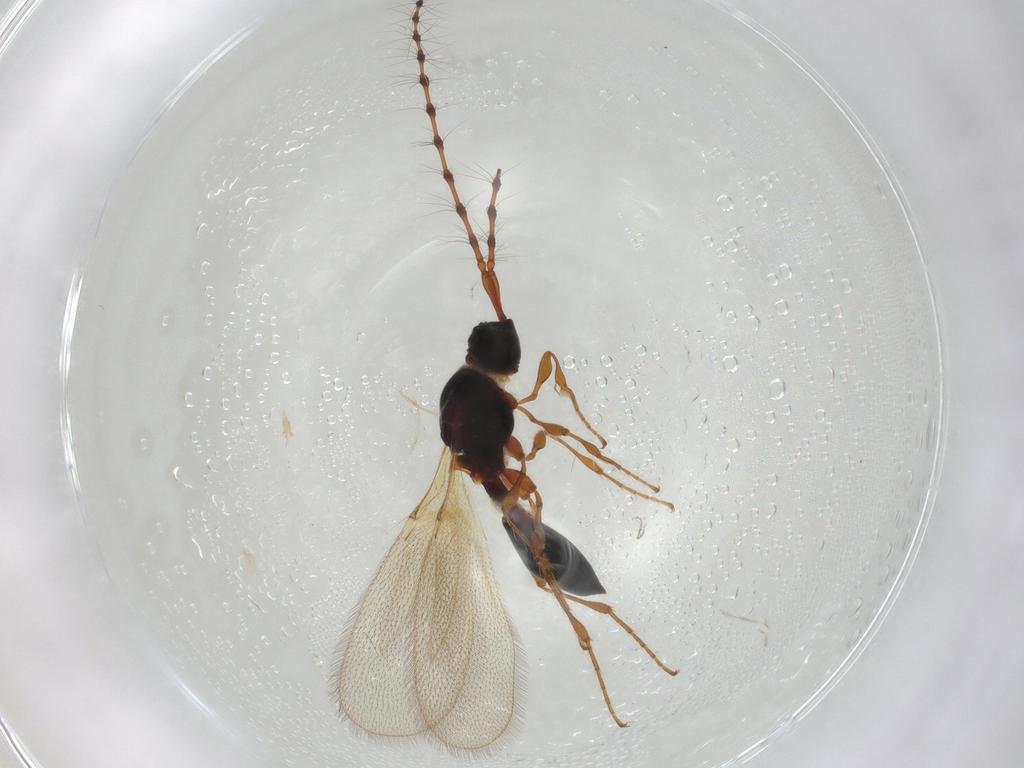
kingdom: Animalia
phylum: Arthropoda
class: Insecta
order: Hymenoptera
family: Diapriidae
